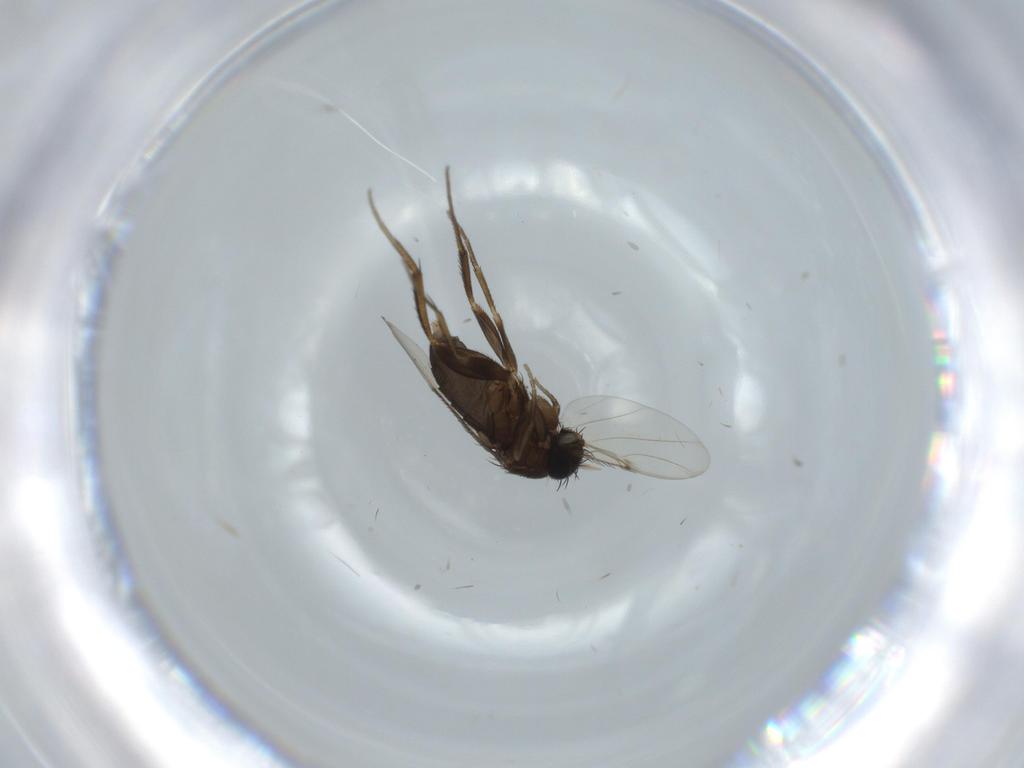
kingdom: Animalia
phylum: Arthropoda
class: Insecta
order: Diptera
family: Phoridae
